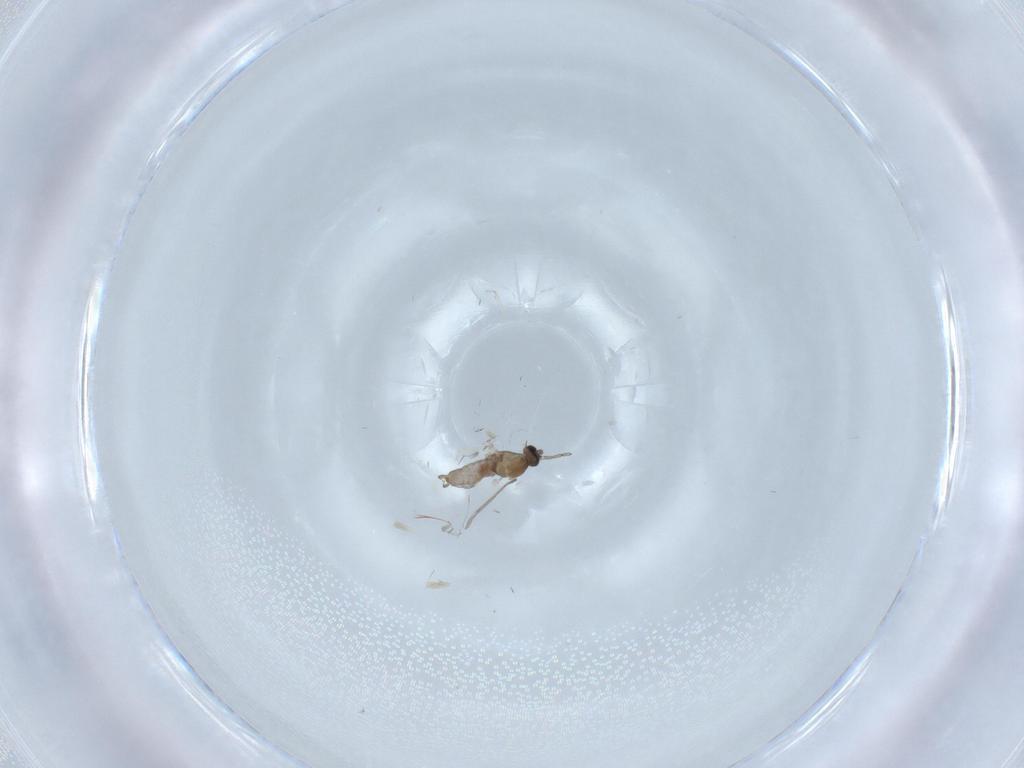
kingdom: Animalia
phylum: Arthropoda
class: Insecta
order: Diptera
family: Cecidomyiidae
